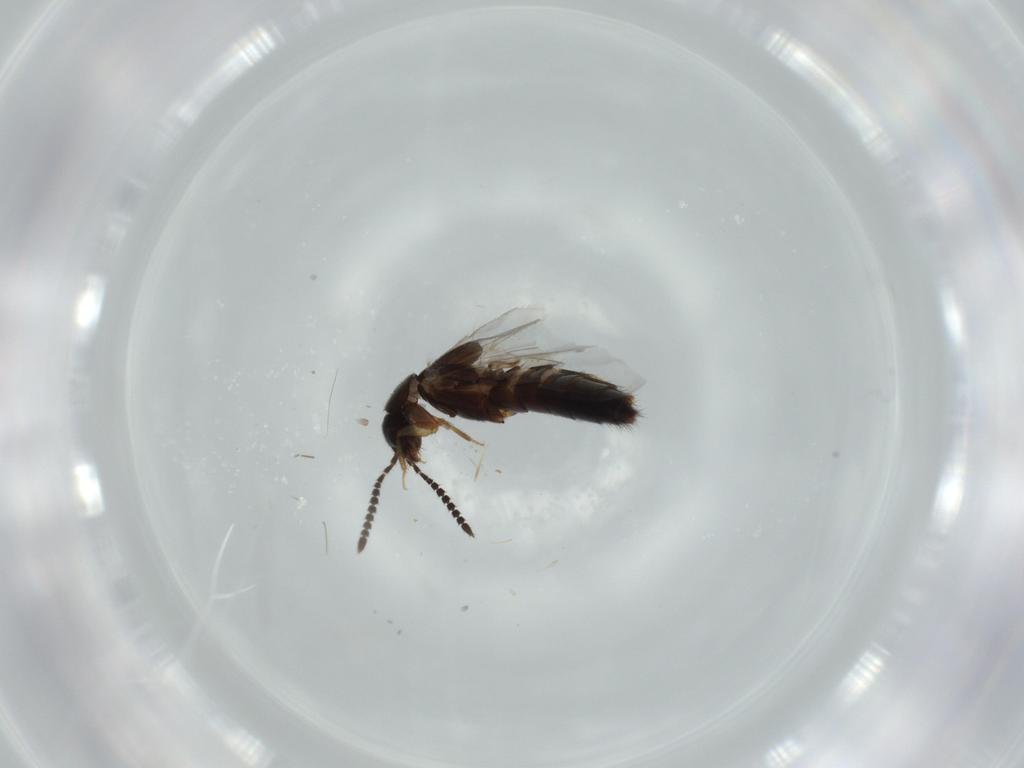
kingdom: Animalia
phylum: Arthropoda
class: Insecta
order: Coleoptera
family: Staphylinidae
